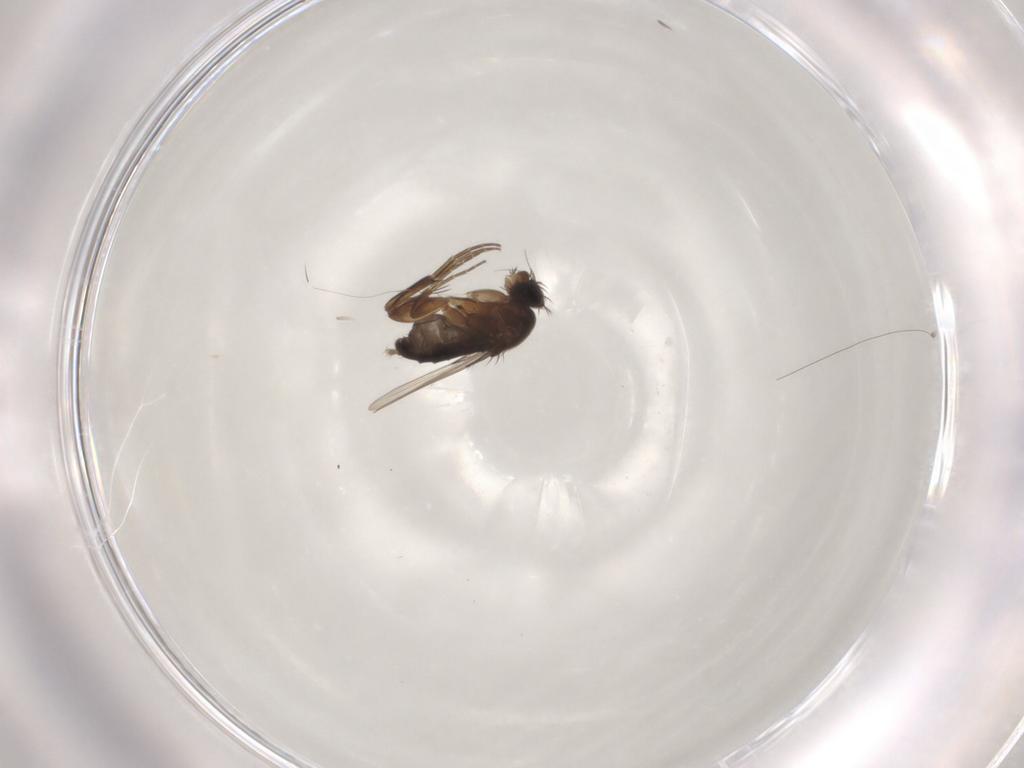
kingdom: Animalia
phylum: Arthropoda
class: Insecta
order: Diptera
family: Phoridae
